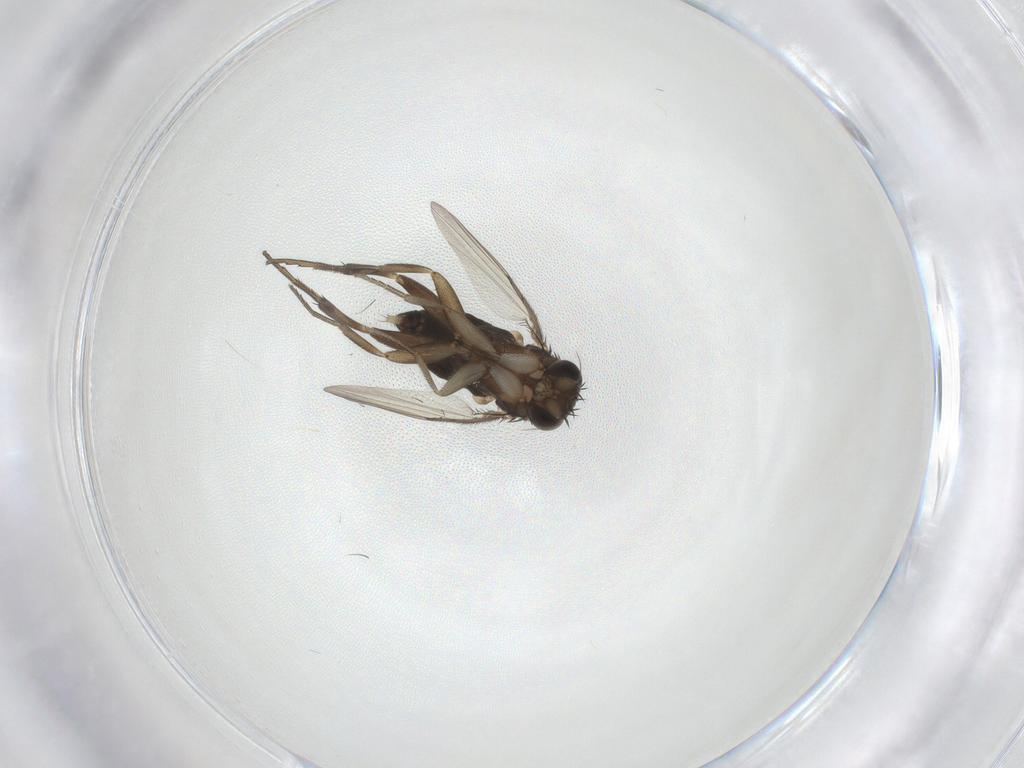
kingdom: Animalia
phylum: Arthropoda
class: Insecta
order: Diptera
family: Phoridae
